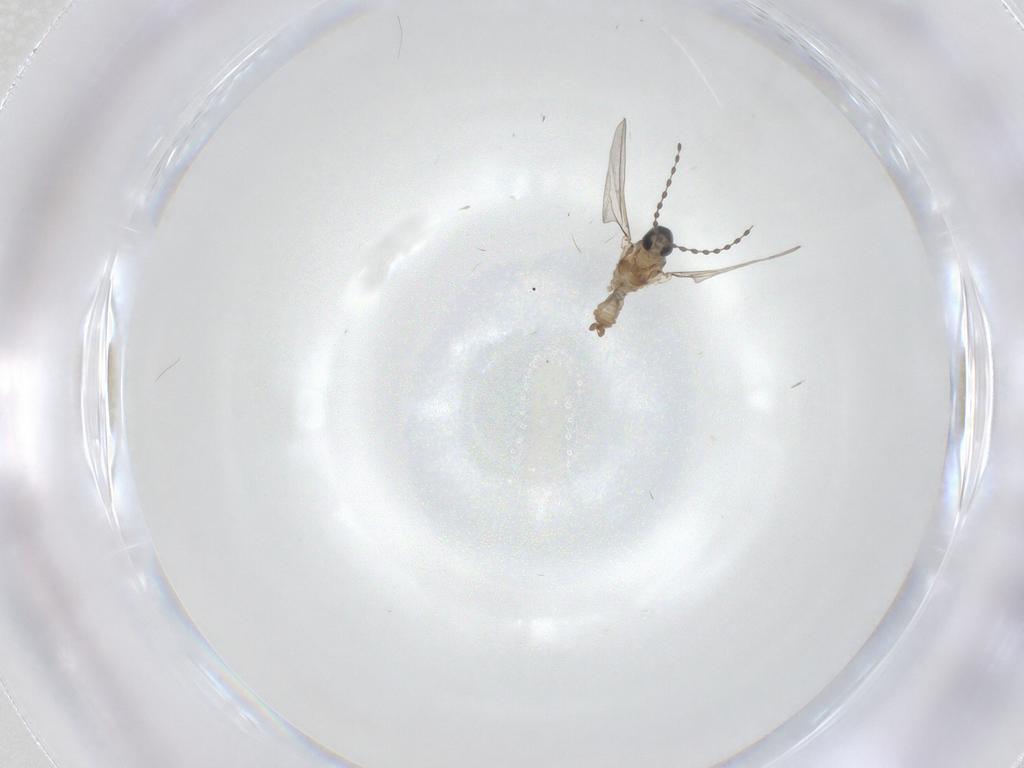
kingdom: Animalia
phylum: Arthropoda
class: Insecta
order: Diptera
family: Cecidomyiidae
